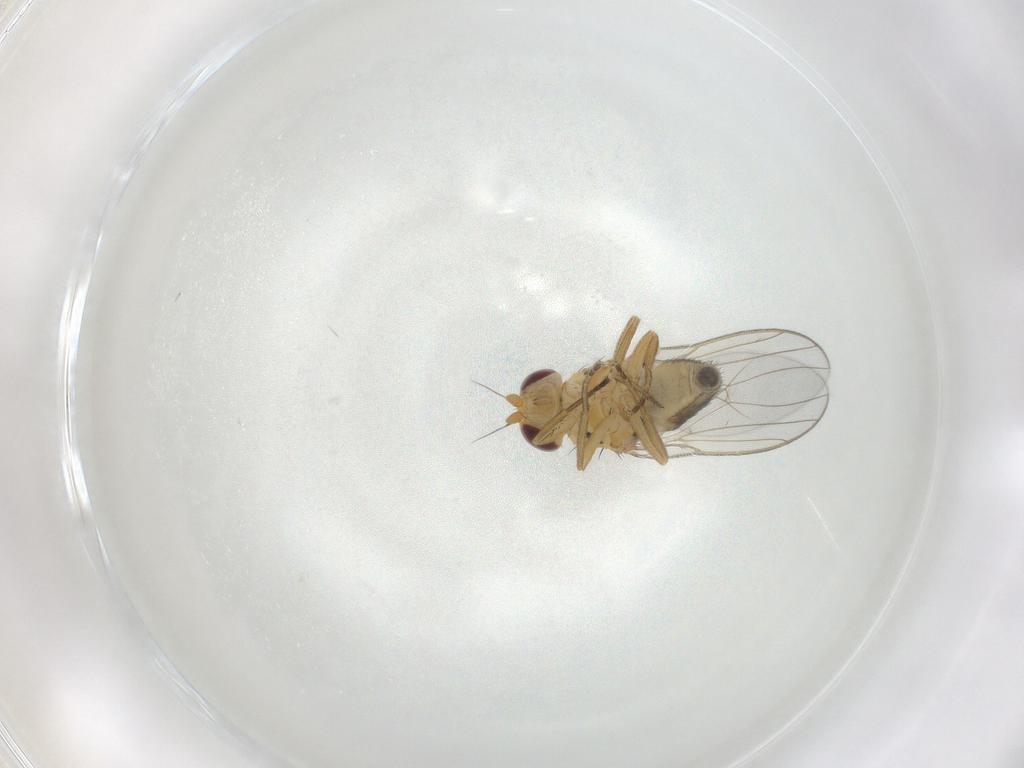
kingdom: Animalia
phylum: Arthropoda
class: Insecta
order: Diptera
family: Chloropidae
